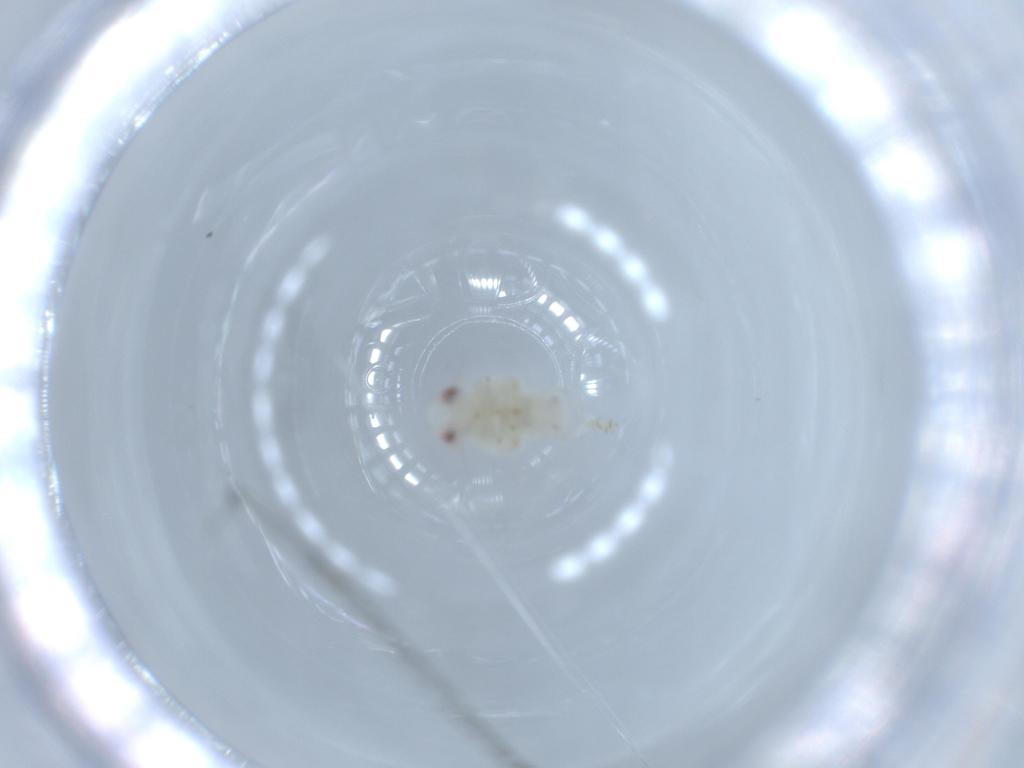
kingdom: Animalia
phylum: Arthropoda
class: Insecta
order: Hemiptera
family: Nogodinidae
